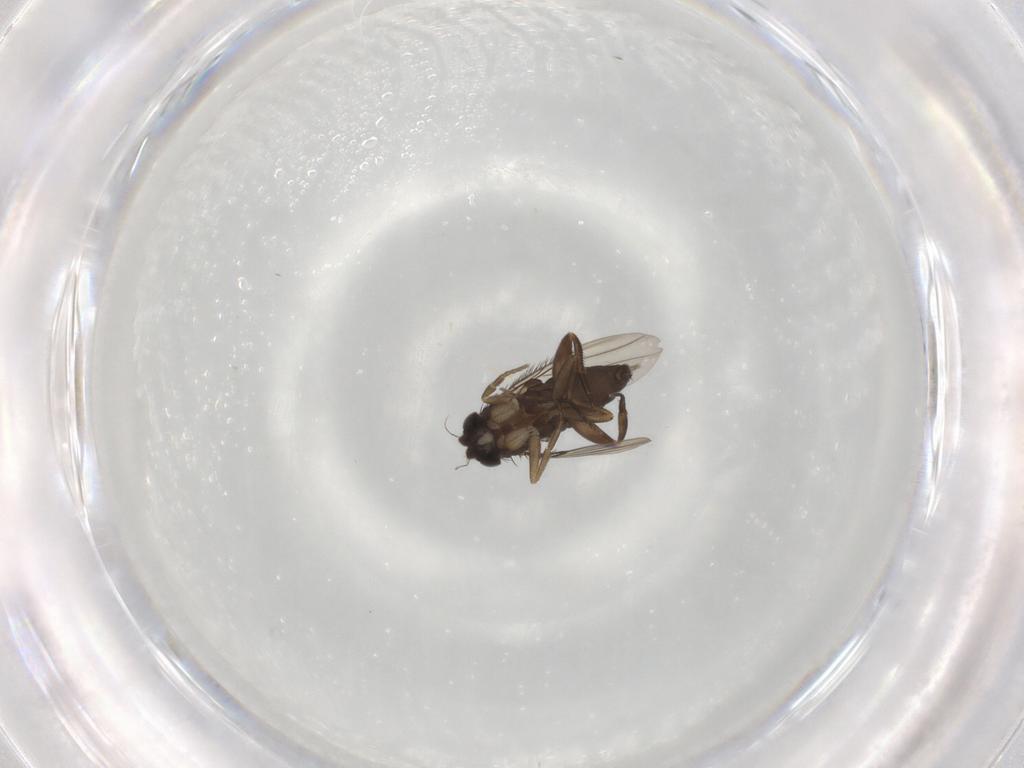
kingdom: Animalia
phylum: Arthropoda
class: Insecta
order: Diptera
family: Phoridae
